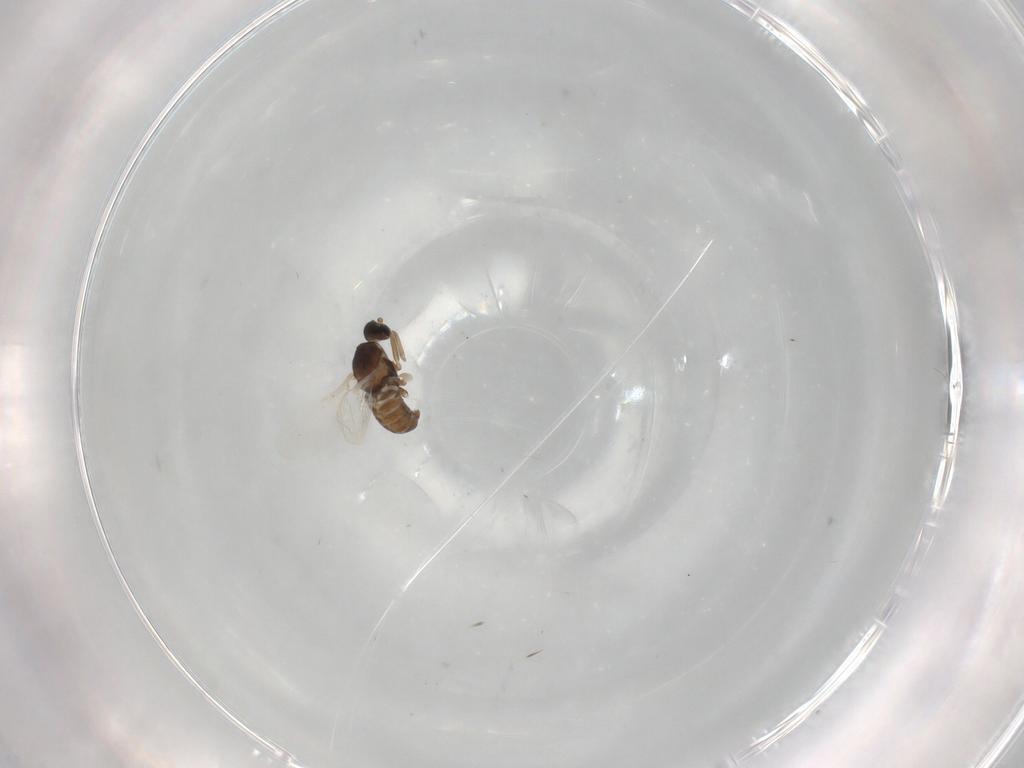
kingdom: Animalia
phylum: Arthropoda
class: Insecta
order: Diptera
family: Cecidomyiidae
